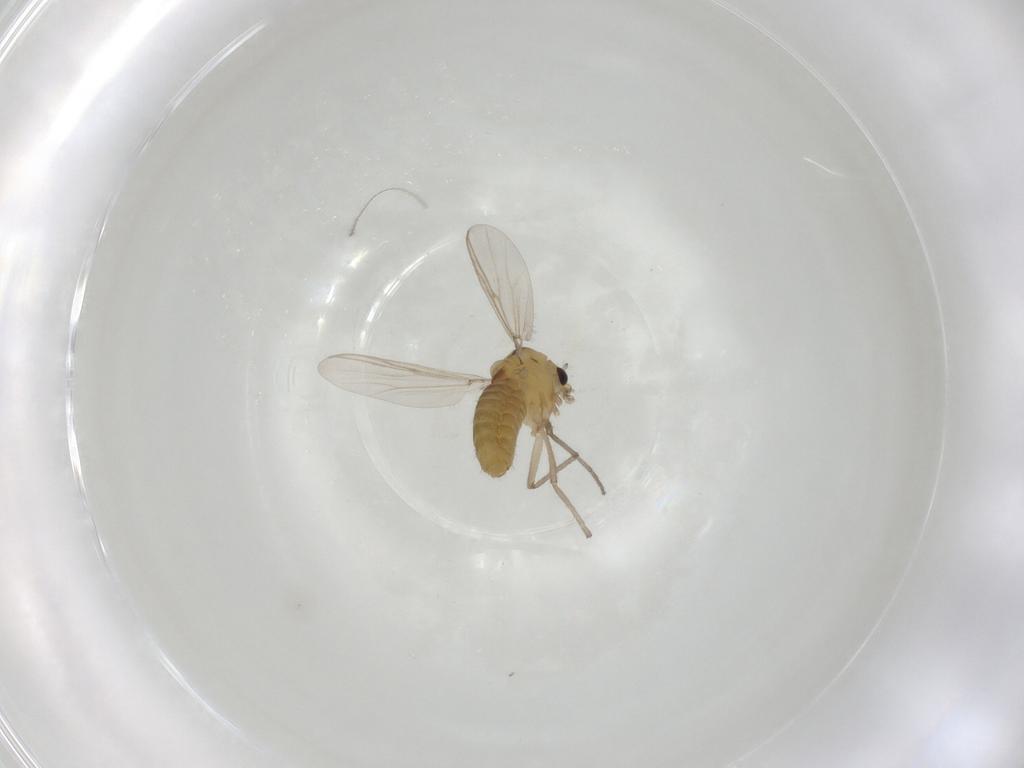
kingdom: Animalia
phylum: Arthropoda
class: Insecta
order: Diptera
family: Chironomidae
